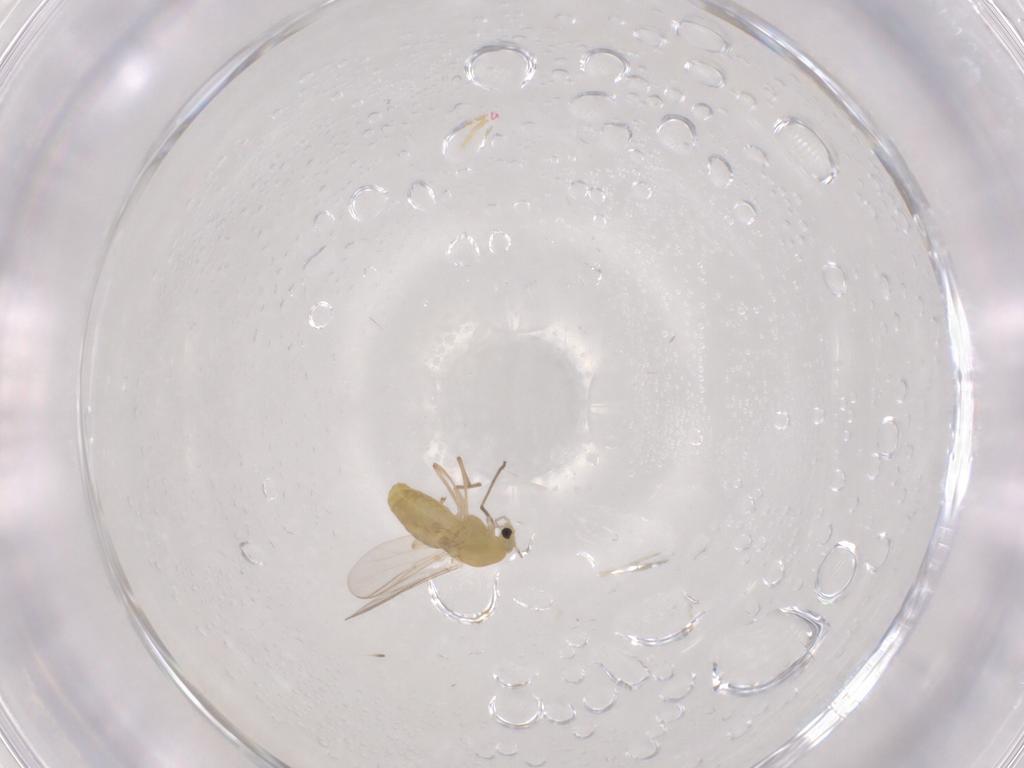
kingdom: Animalia
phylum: Arthropoda
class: Insecta
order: Diptera
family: Chironomidae
